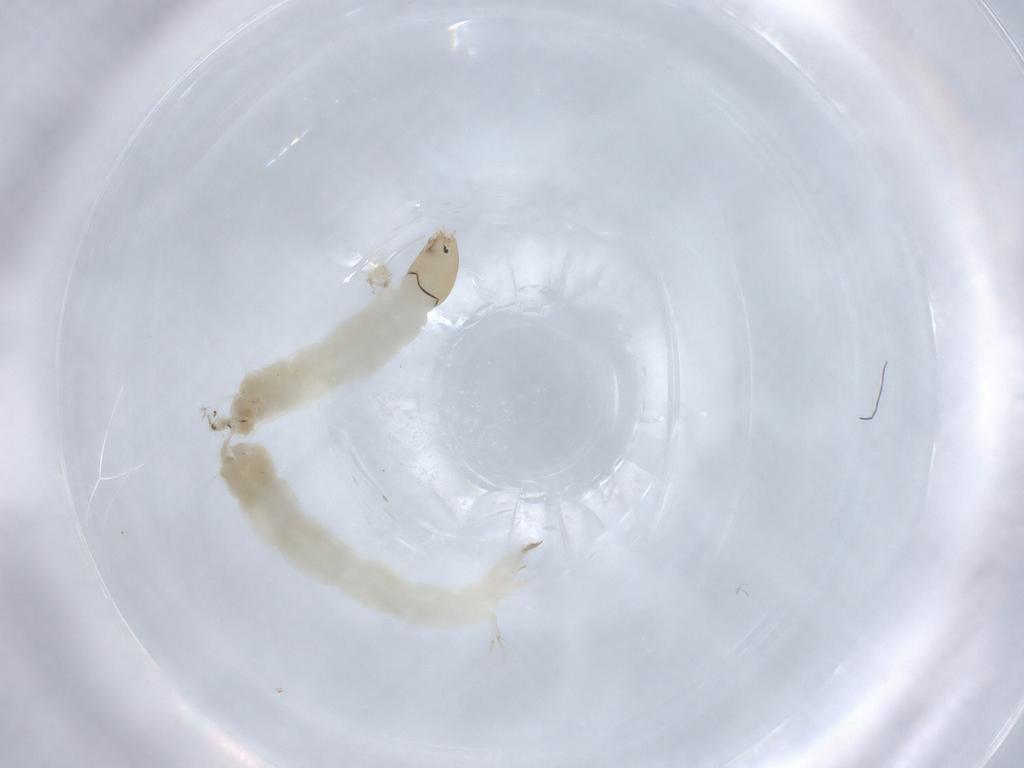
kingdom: Animalia
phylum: Arthropoda
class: Insecta
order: Diptera
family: Chironomidae
